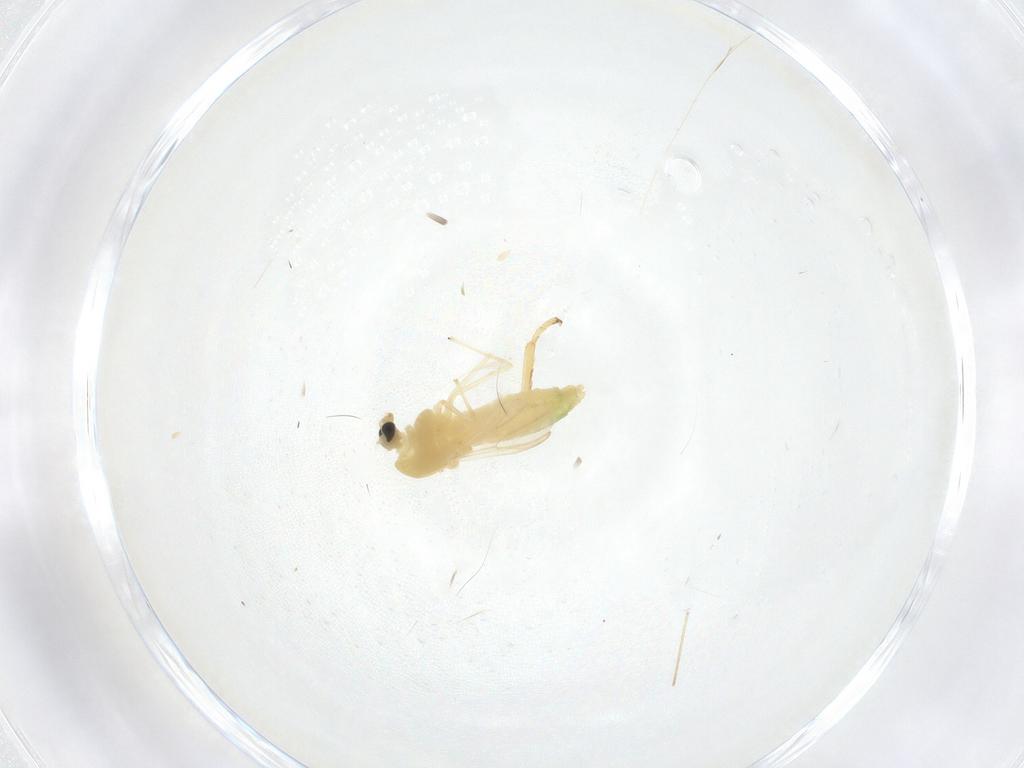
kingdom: Animalia
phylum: Arthropoda
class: Insecta
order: Diptera
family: Chironomidae
